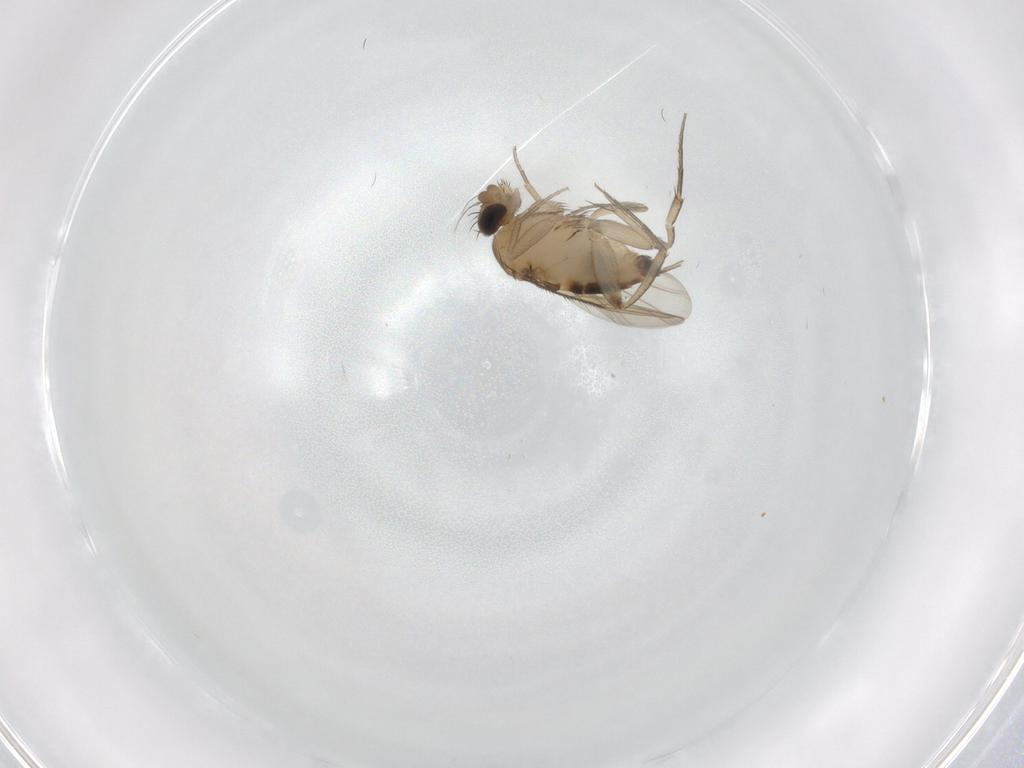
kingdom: Animalia
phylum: Arthropoda
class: Insecta
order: Diptera
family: Phoridae
